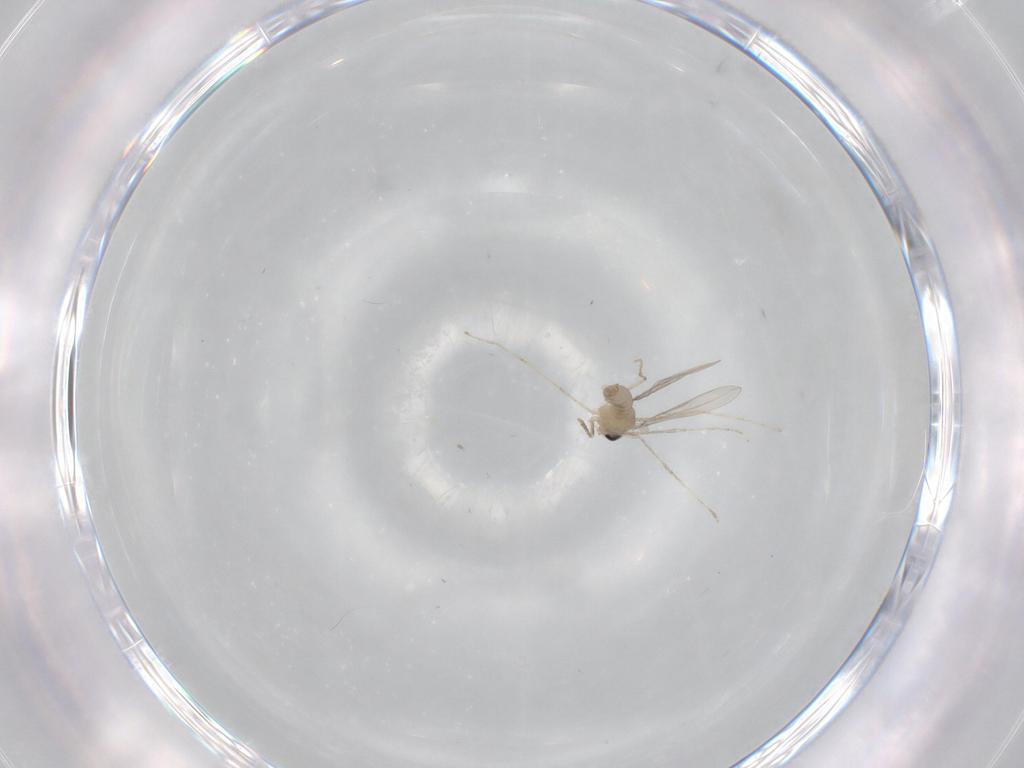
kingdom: Animalia
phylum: Arthropoda
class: Insecta
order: Diptera
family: Cecidomyiidae
